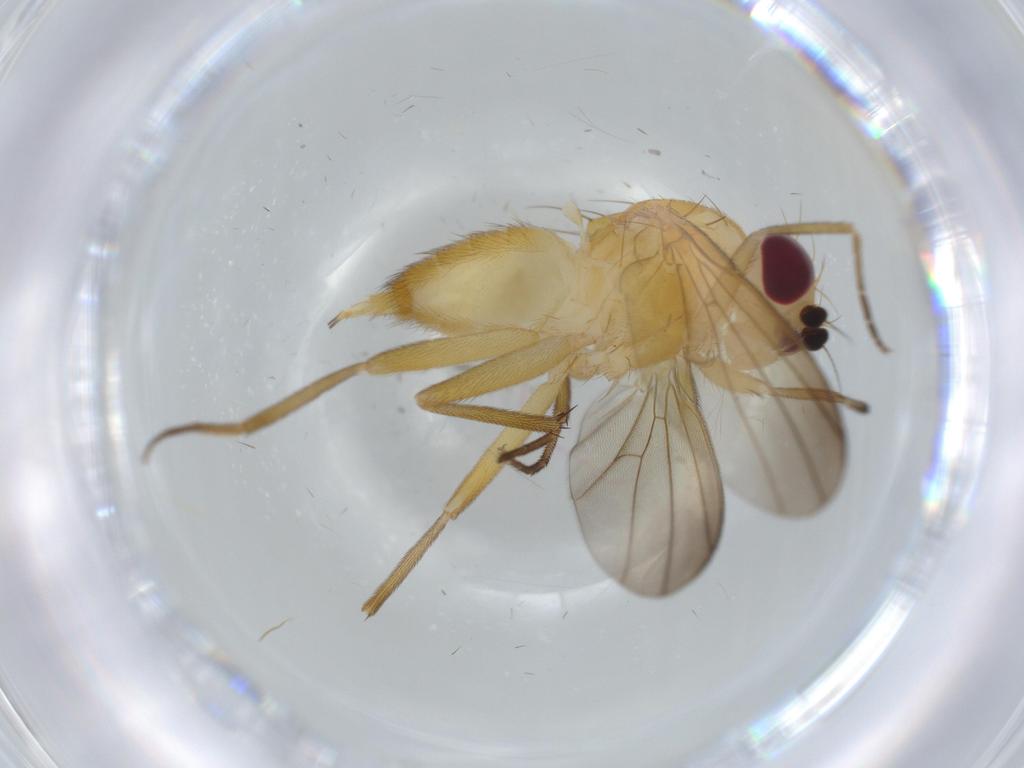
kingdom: Animalia
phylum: Arthropoda
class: Insecta
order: Diptera
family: Clusiidae
